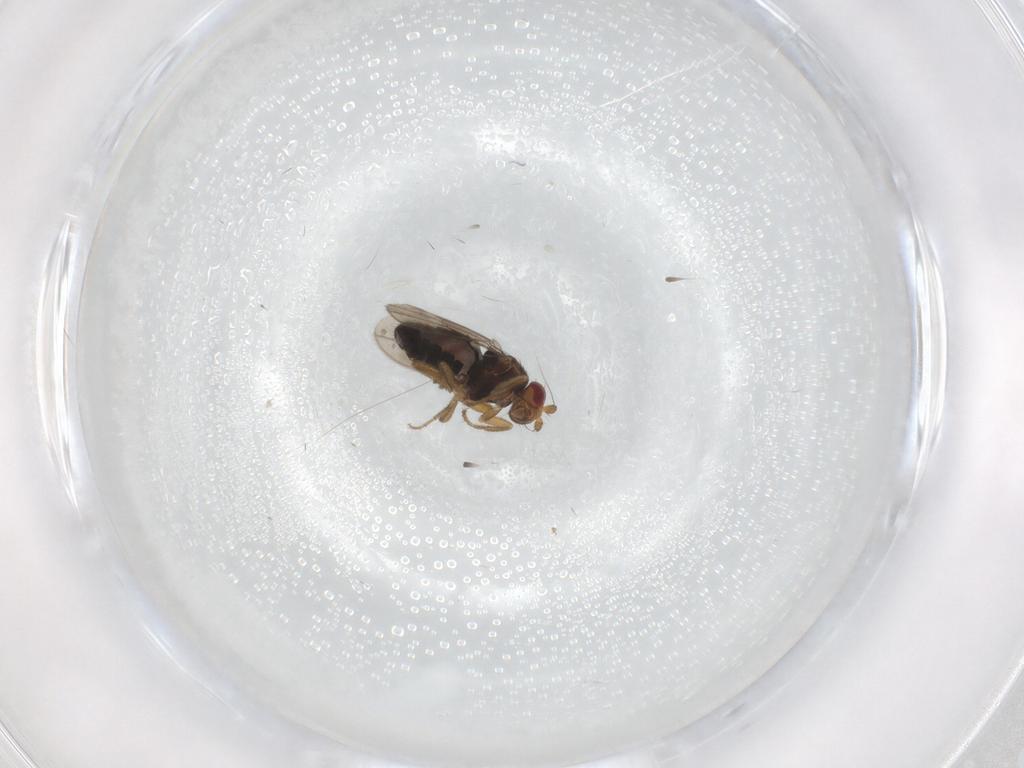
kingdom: Animalia
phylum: Arthropoda
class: Insecta
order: Diptera
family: Sphaeroceridae
